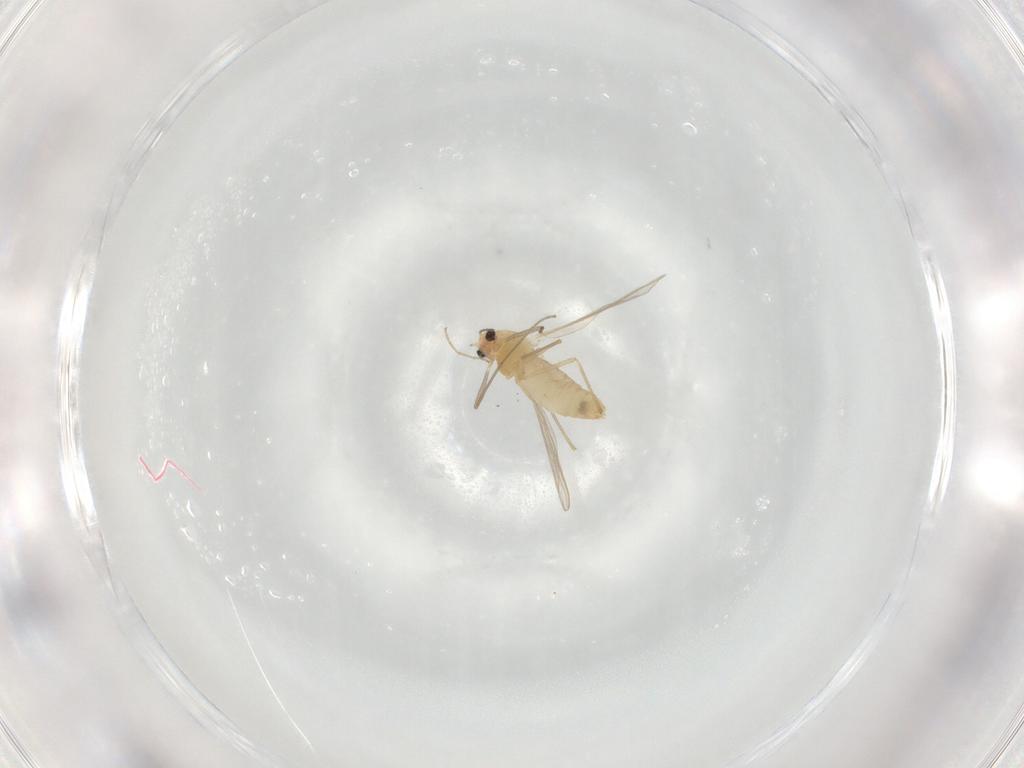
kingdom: Animalia
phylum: Arthropoda
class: Insecta
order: Diptera
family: Chironomidae
